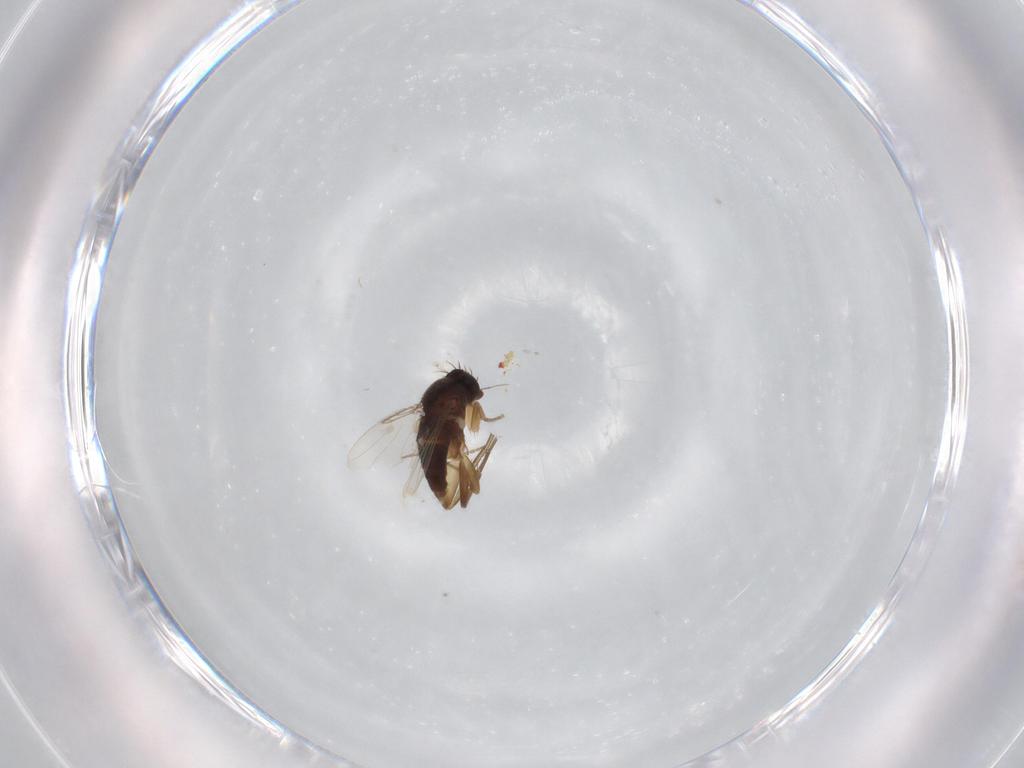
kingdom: Animalia
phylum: Arthropoda
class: Insecta
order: Diptera
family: Phoridae
